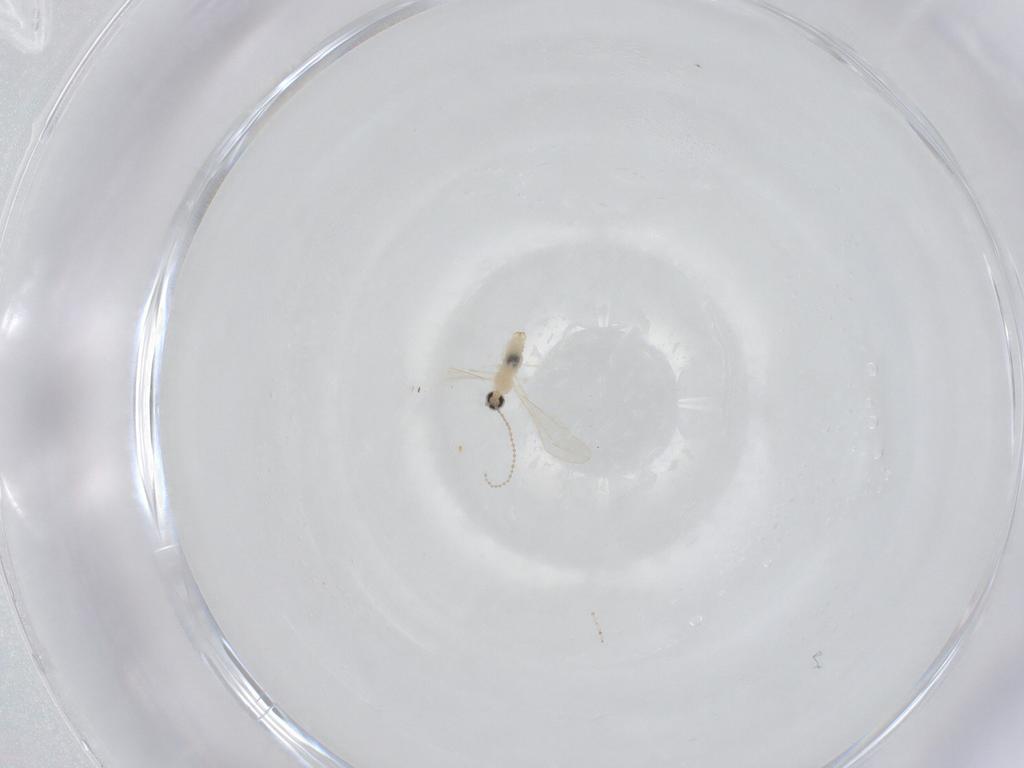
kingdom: Animalia
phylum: Arthropoda
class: Insecta
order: Diptera
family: Cecidomyiidae
